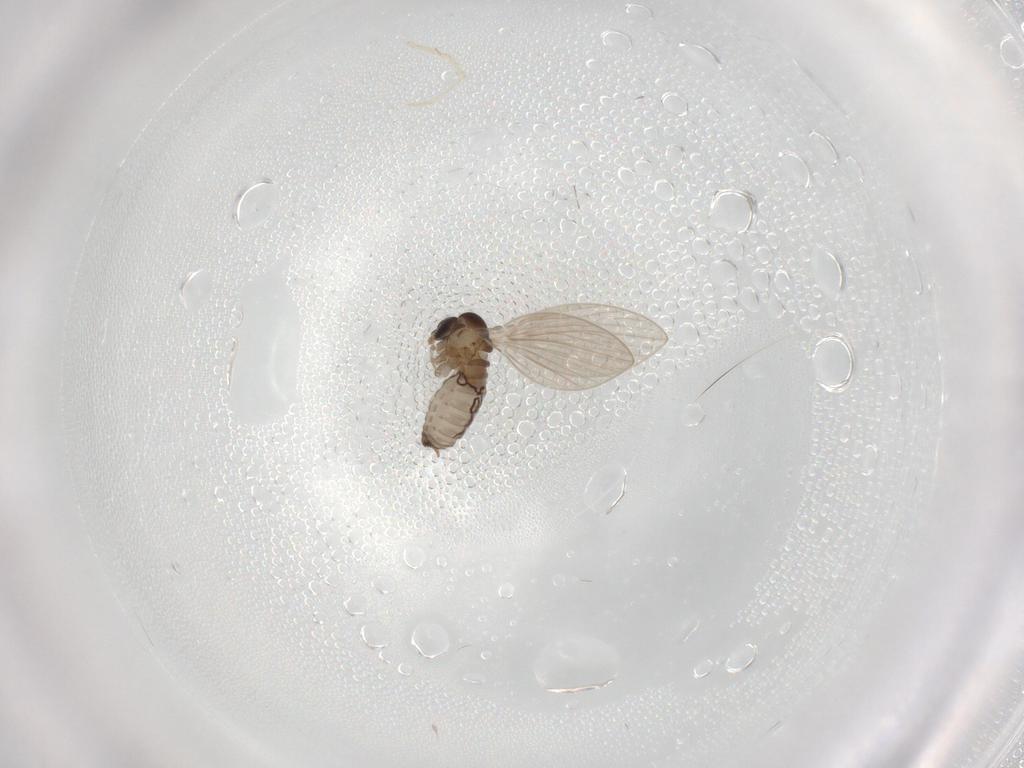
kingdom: Animalia
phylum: Arthropoda
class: Insecta
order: Diptera
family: Psychodidae
